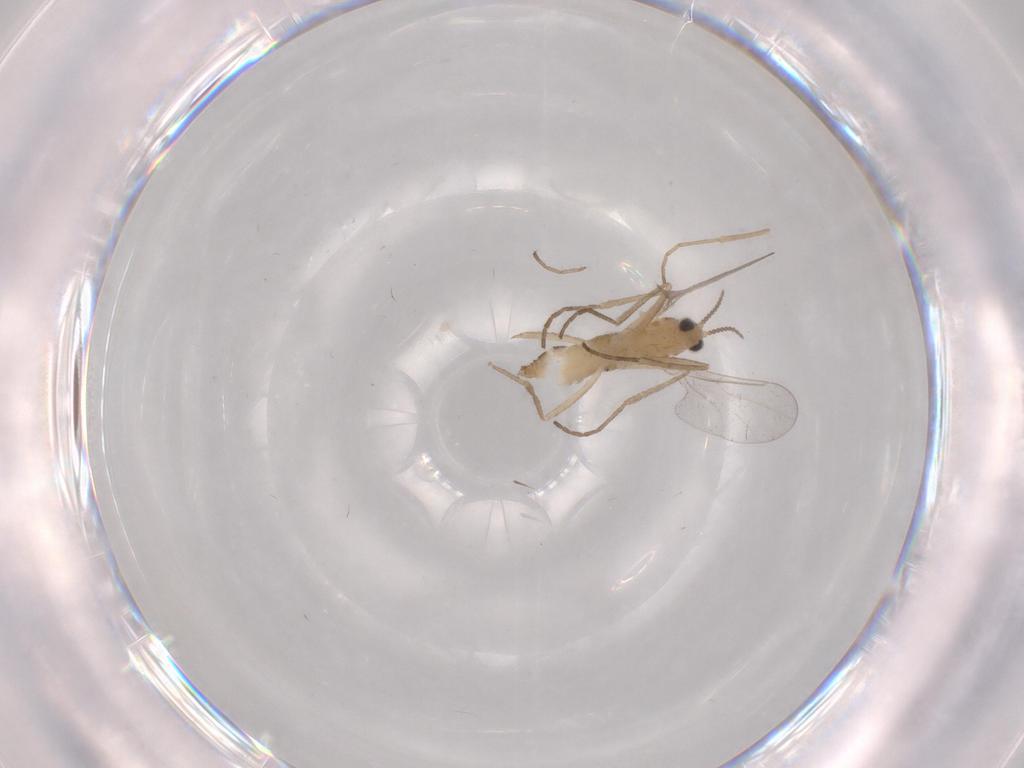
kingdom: Animalia
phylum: Arthropoda
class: Insecta
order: Diptera
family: Cecidomyiidae
